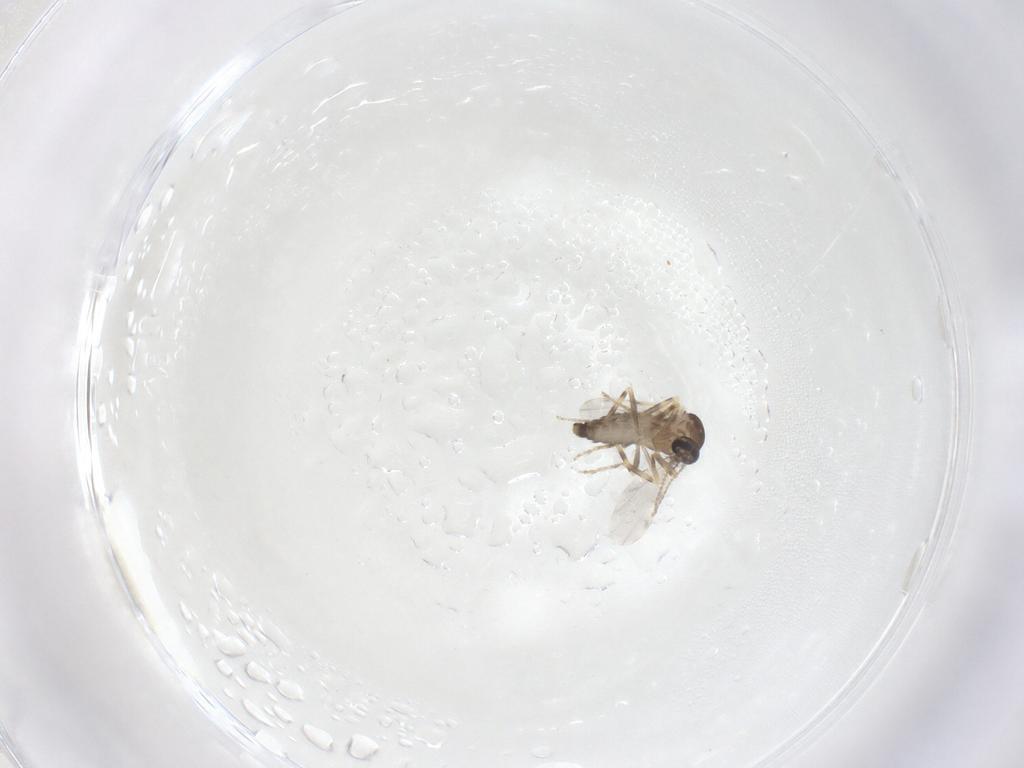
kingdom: Animalia
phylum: Arthropoda
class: Insecta
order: Diptera
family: Ceratopogonidae
